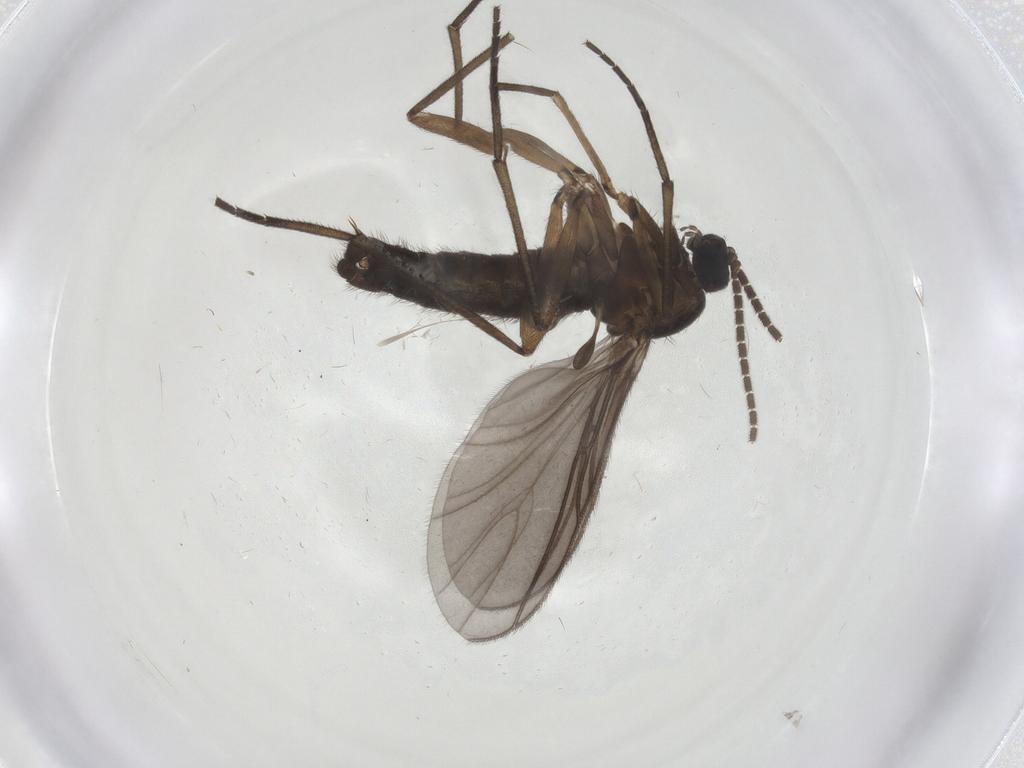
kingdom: Animalia
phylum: Arthropoda
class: Insecta
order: Diptera
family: Sciaridae
